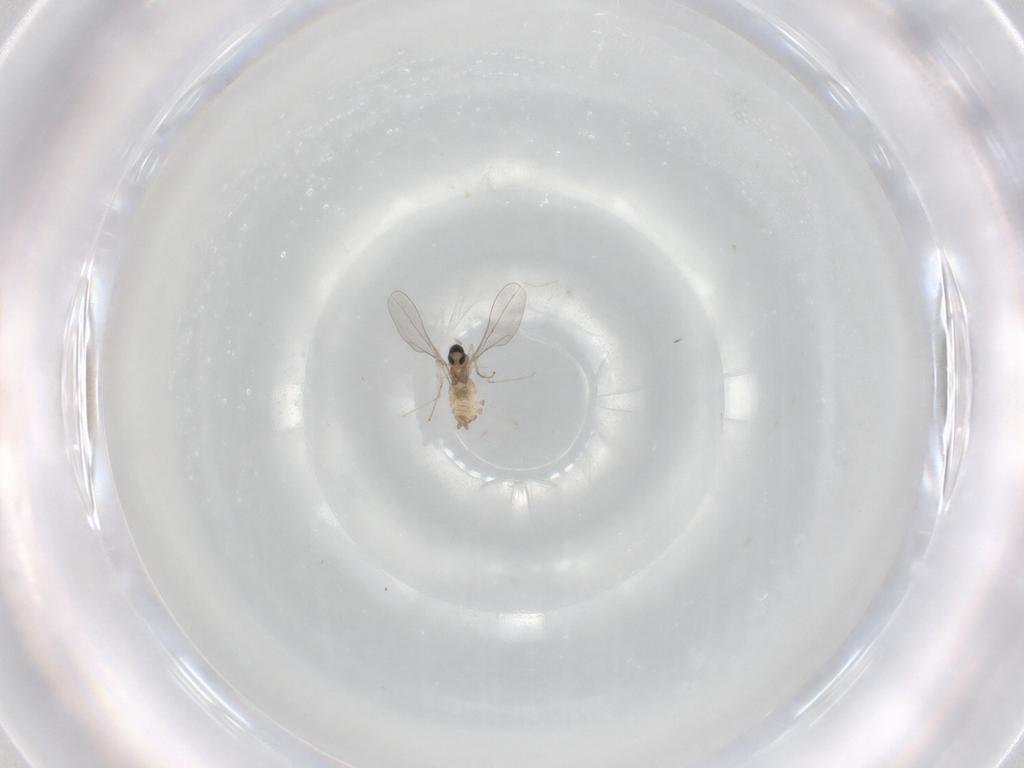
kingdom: Animalia
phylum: Arthropoda
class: Insecta
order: Diptera
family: Cecidomyiidae
